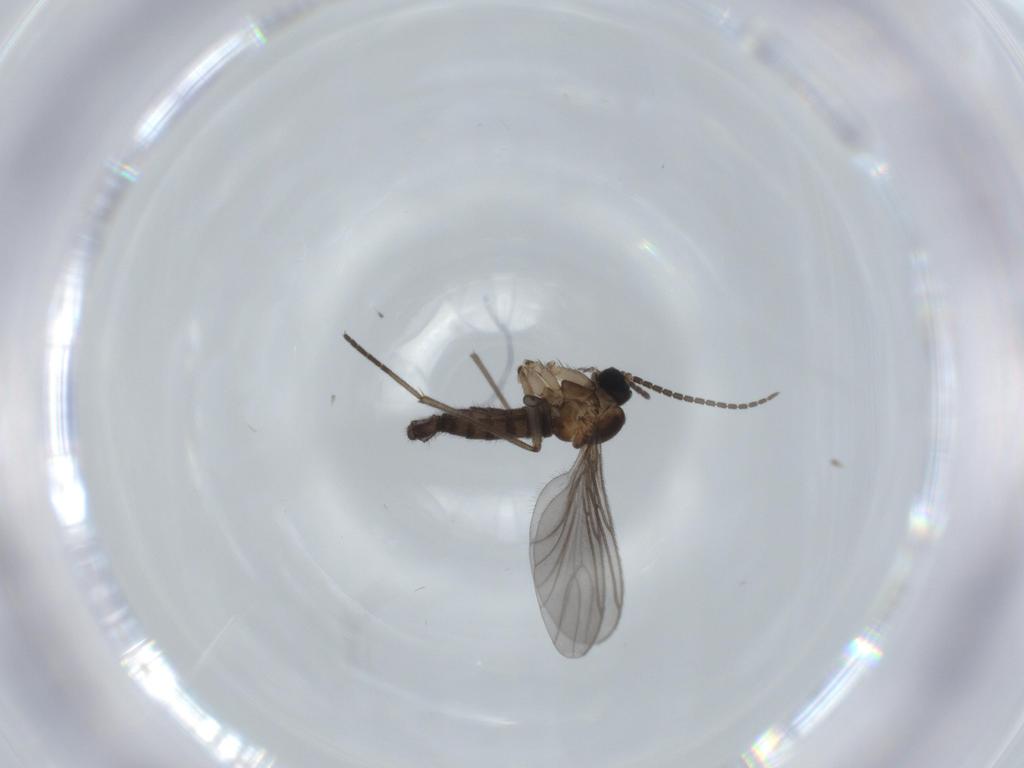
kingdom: Animalia
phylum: Arthropoda
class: Insecta
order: Diptera
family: Sciaridae
